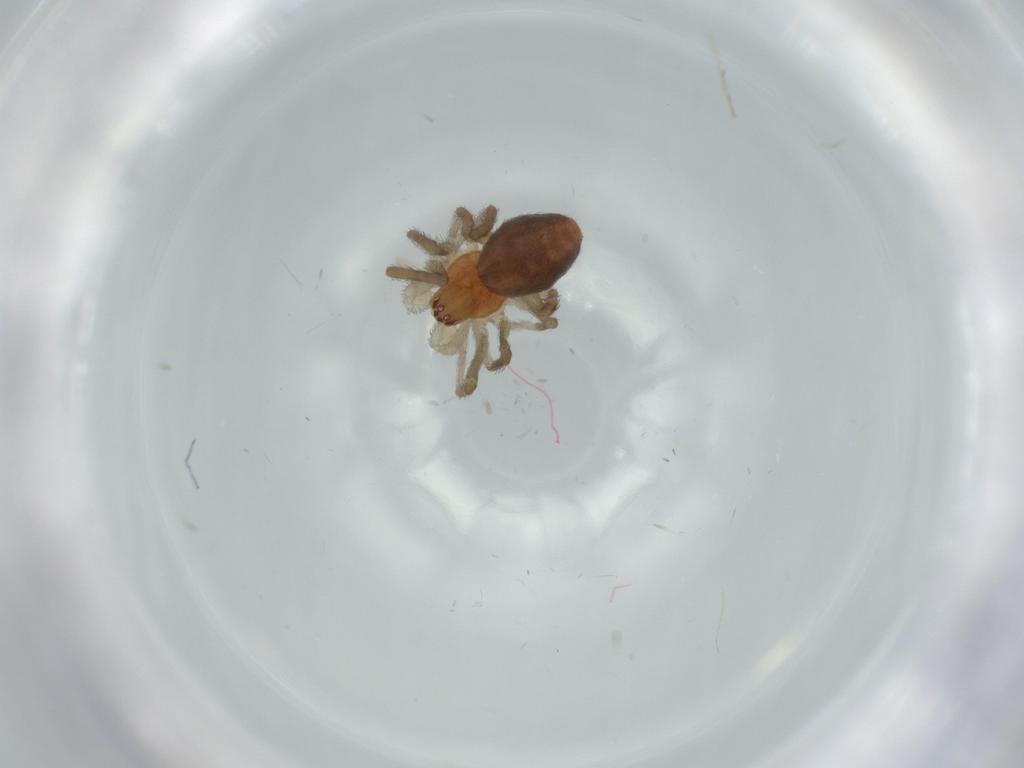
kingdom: Animalia
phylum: Arthropoda
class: Arachnida
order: Araneae
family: Dictynidae
